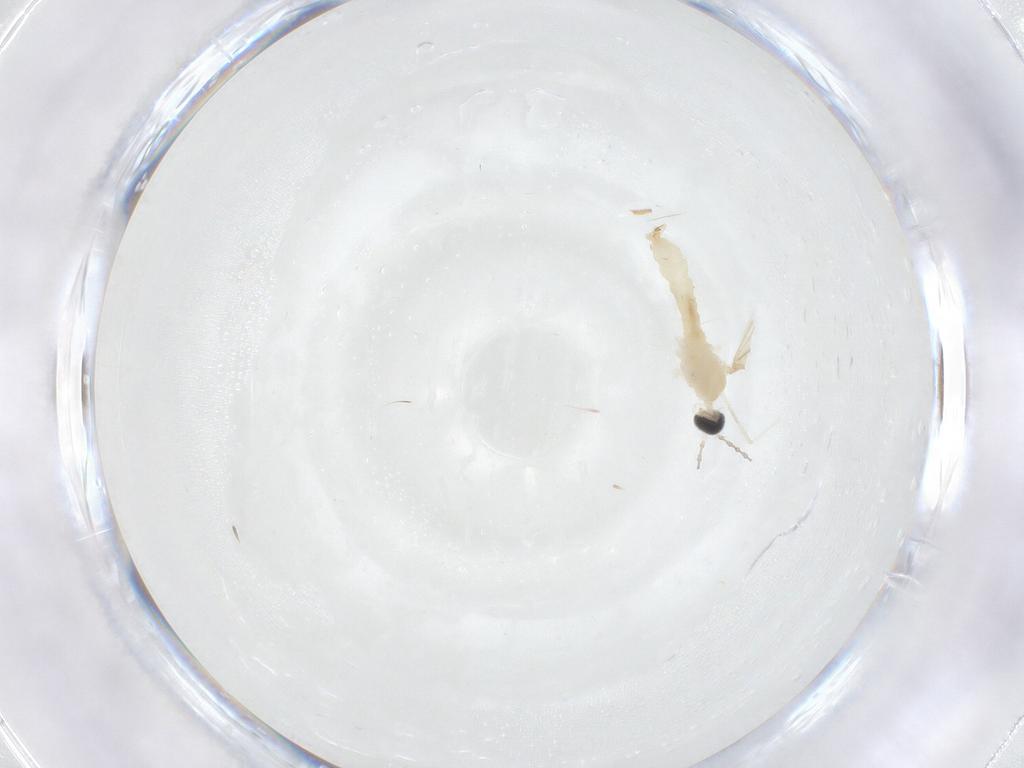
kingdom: Animalia
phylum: Arthropoda
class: Insecta
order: Diptera
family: Cecidomyiidae
